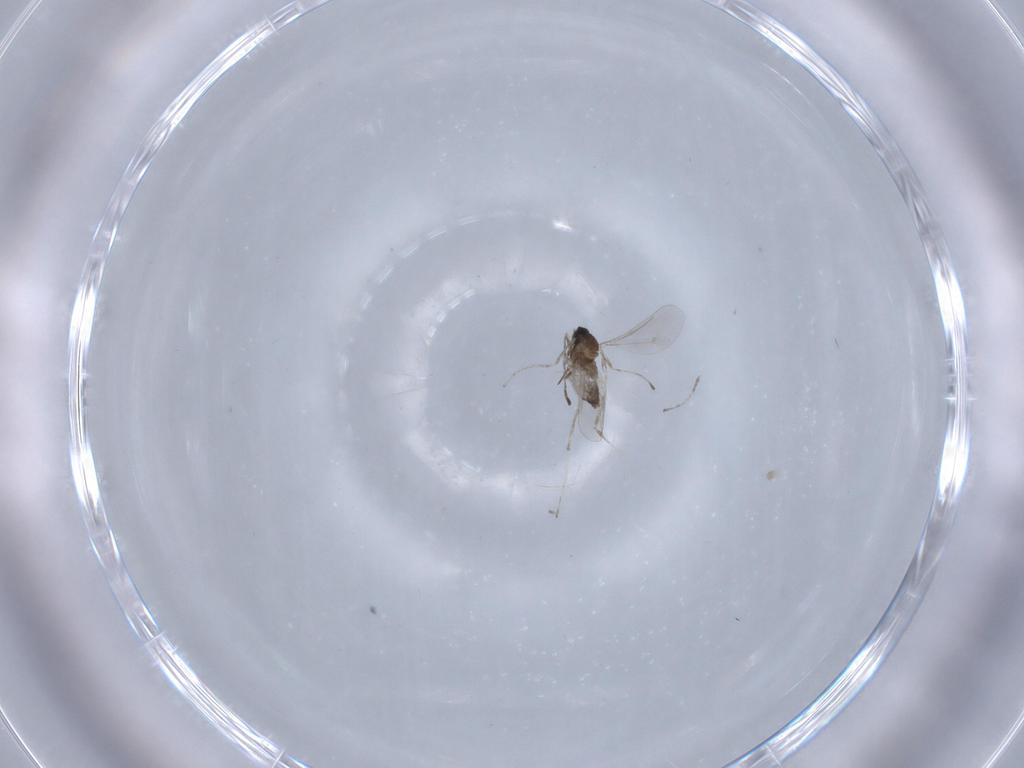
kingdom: Animalia
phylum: Arthropoda
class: Insecta
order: Diptera
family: Cecidomyiidae
